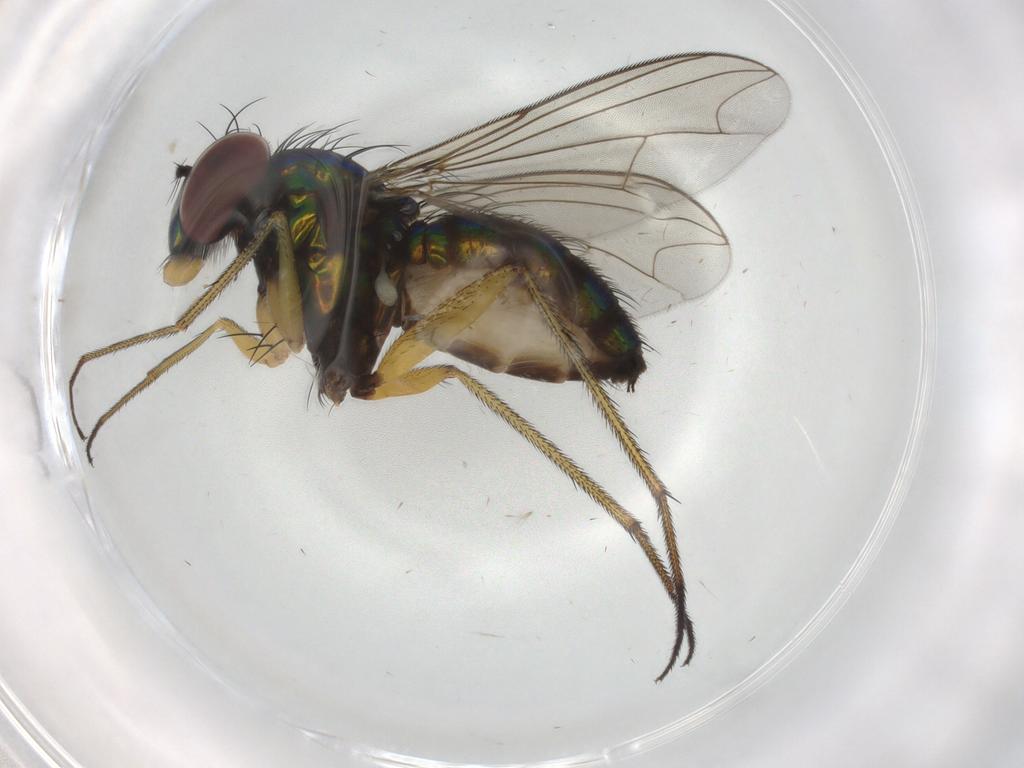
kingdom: Animalia
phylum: Arthropoda
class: Insecta
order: Diptera
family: Dolichopodidae
